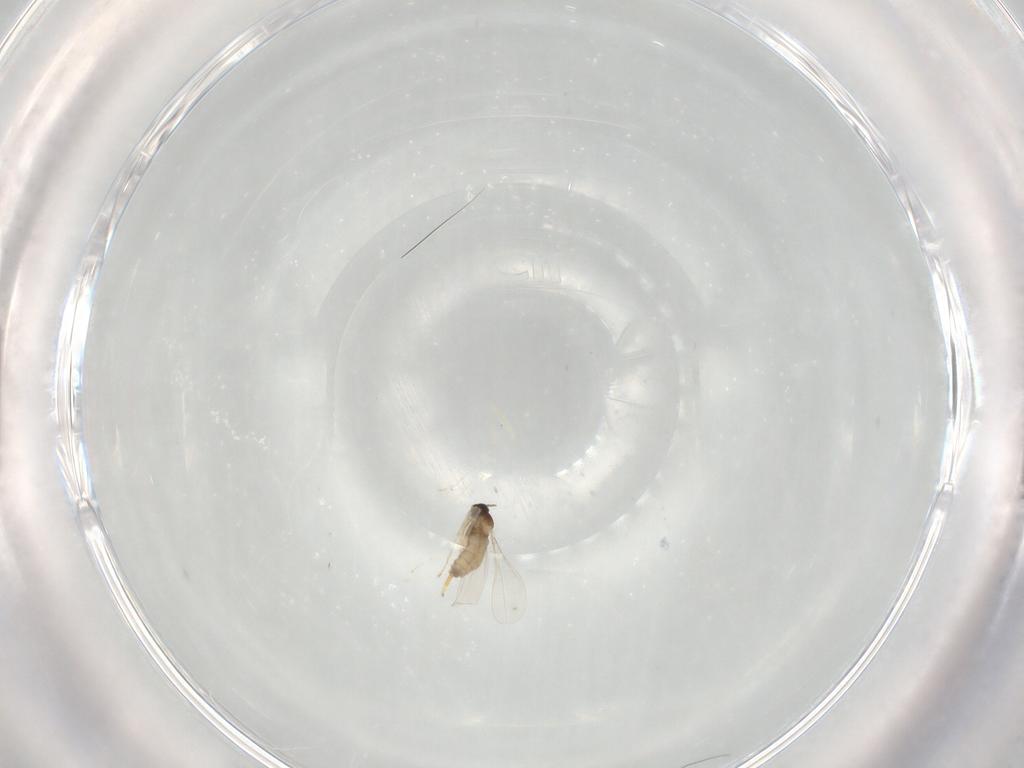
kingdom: Animalia
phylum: Arthropoda
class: Insecta
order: Diptera
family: Cecidomyiidae
